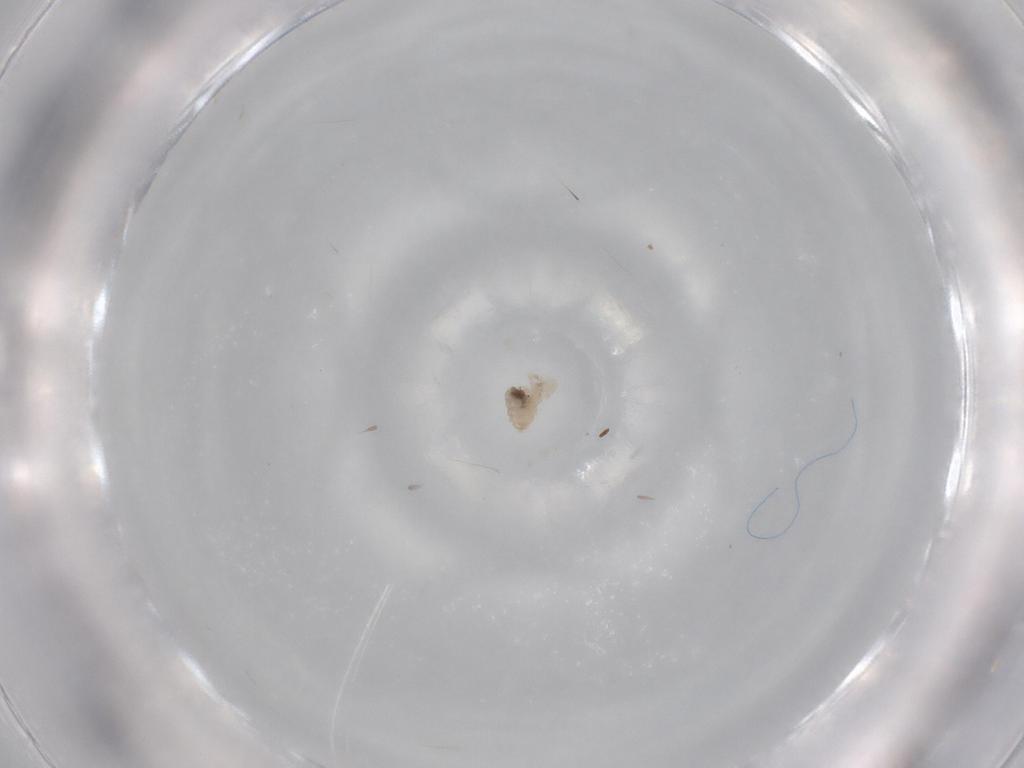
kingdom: Animalia
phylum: Arthropoda
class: Insecta
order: Diptera
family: Cecidomyiidae
